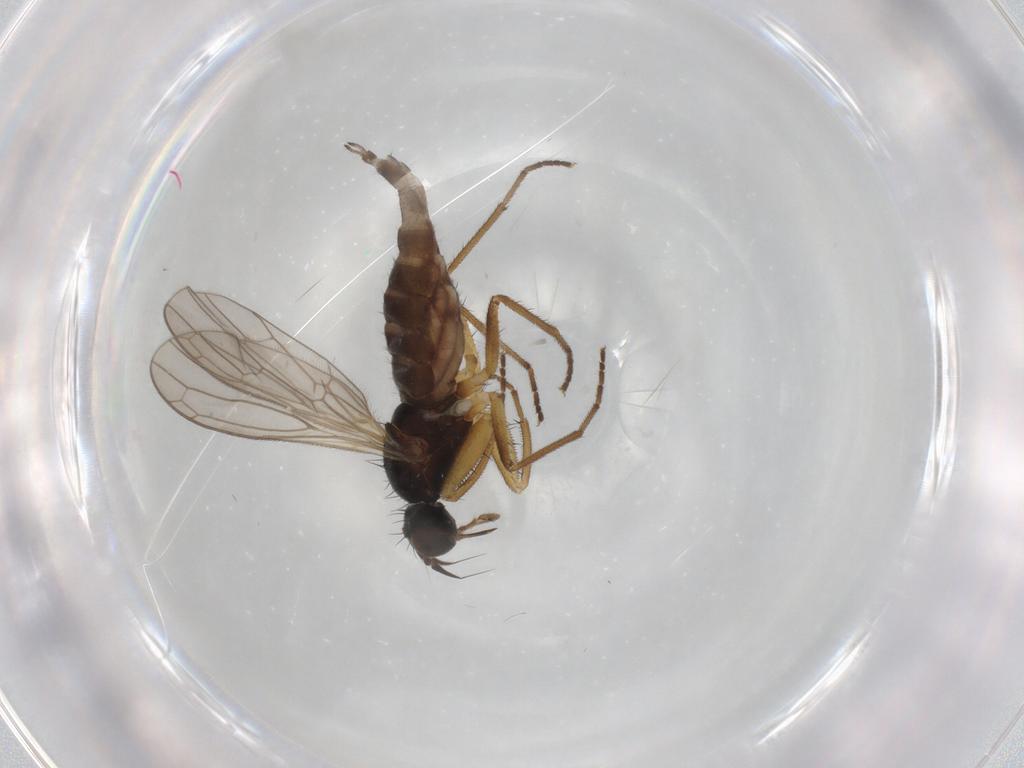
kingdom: Animalia
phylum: Arthropoda
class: Insecta
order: Diptera
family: Empididae
